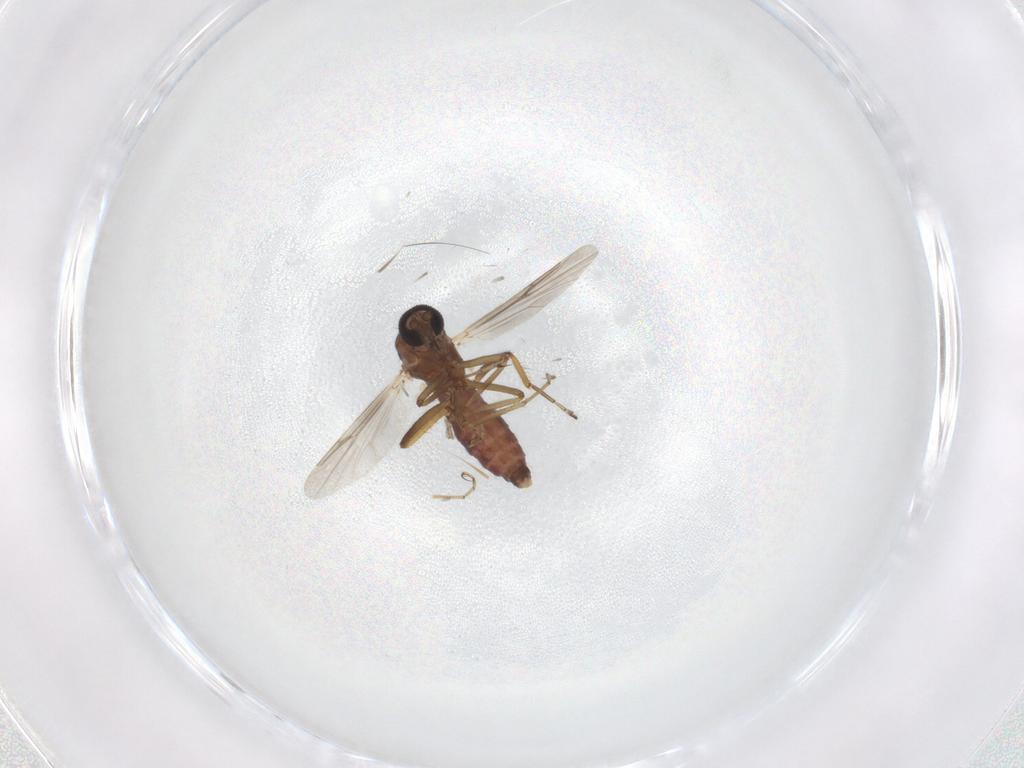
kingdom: Animalia
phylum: Arthropoda
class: Insecta
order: Diptera
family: Ceratopogonidae
